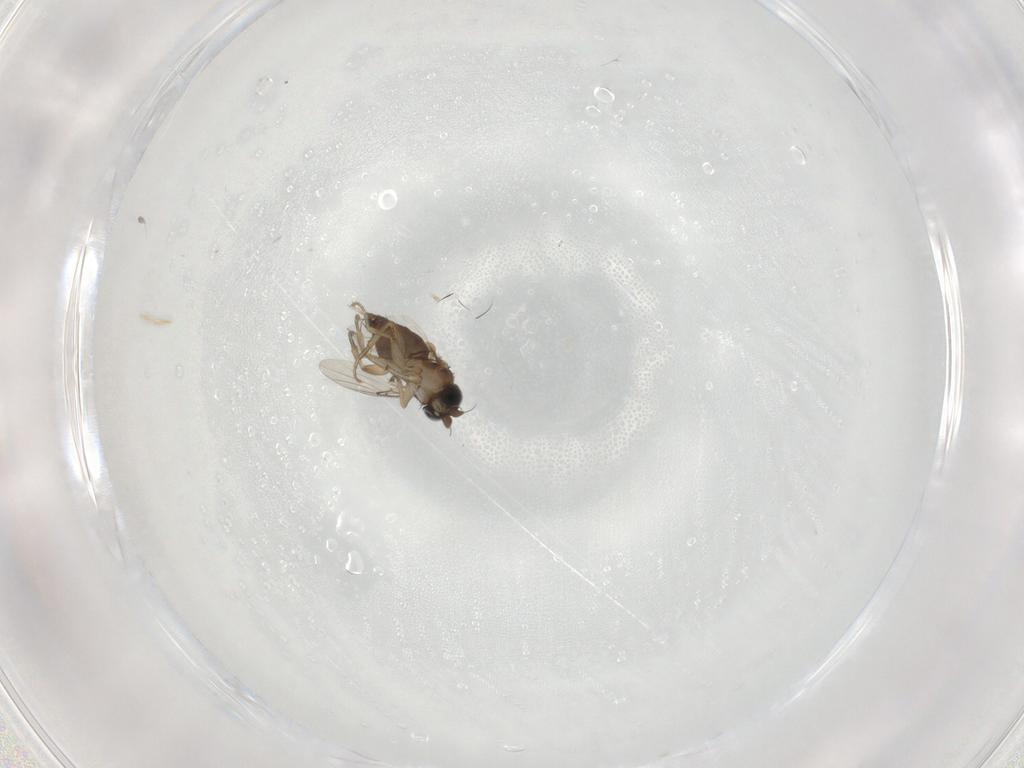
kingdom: Animalia
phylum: Arthropoda
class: Insecta
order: Diptera
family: Phoridae
